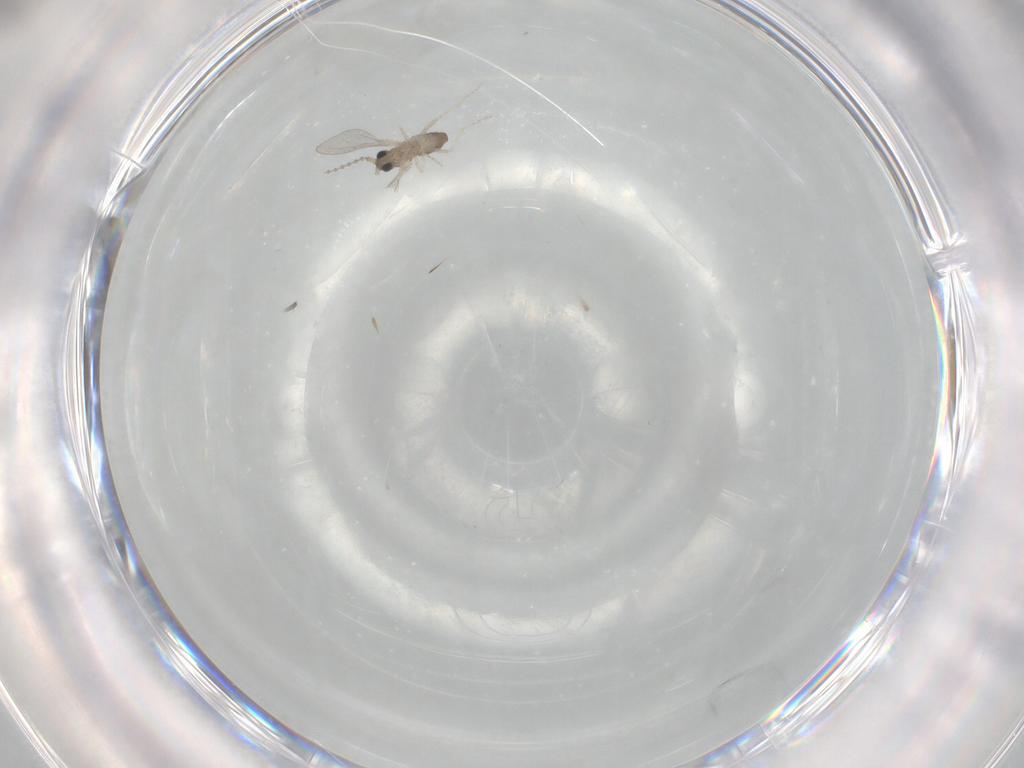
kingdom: Animalia
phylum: Arthropoda
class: Insecta
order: Diptera
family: Cecidomyiidae
